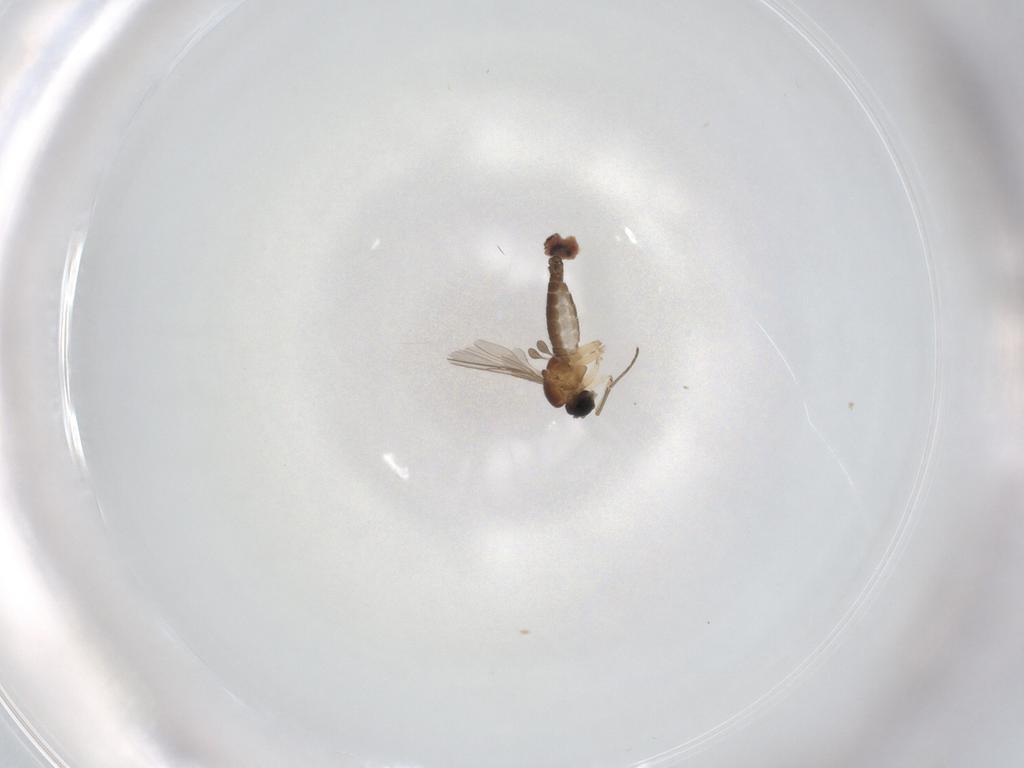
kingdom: Animalia
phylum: Arthropoda
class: Insecta
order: Diptera
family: Sciaridae
